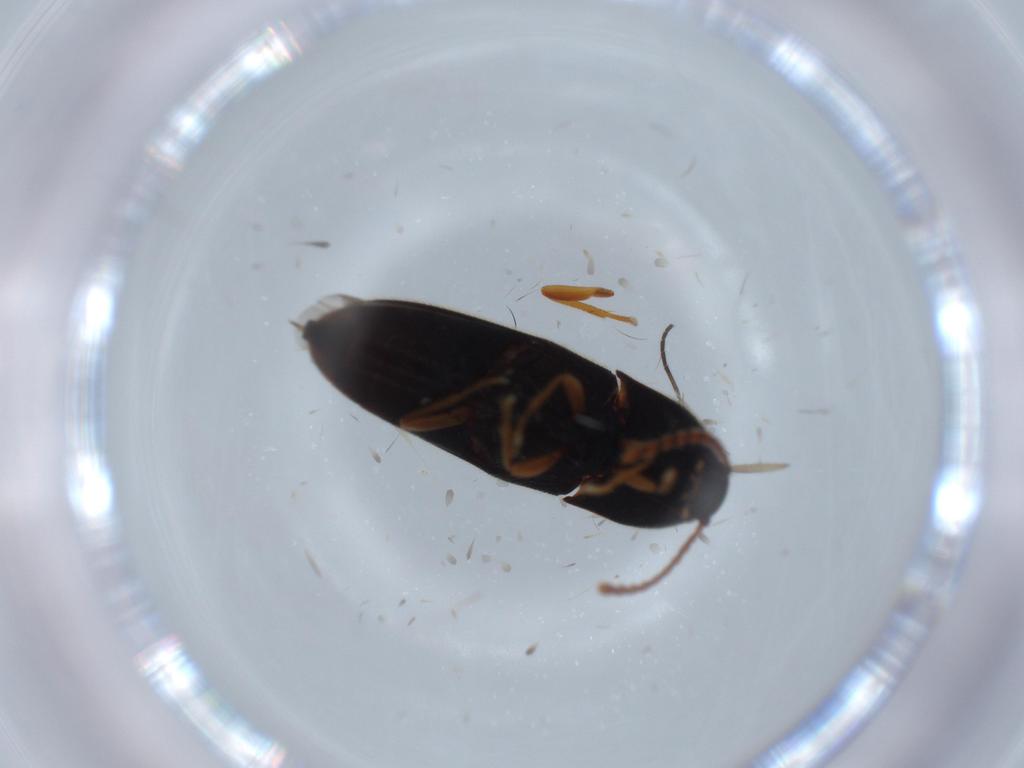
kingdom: Animalia
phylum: Arthropoda
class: Insecta
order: Coleoptera
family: Elateridae
